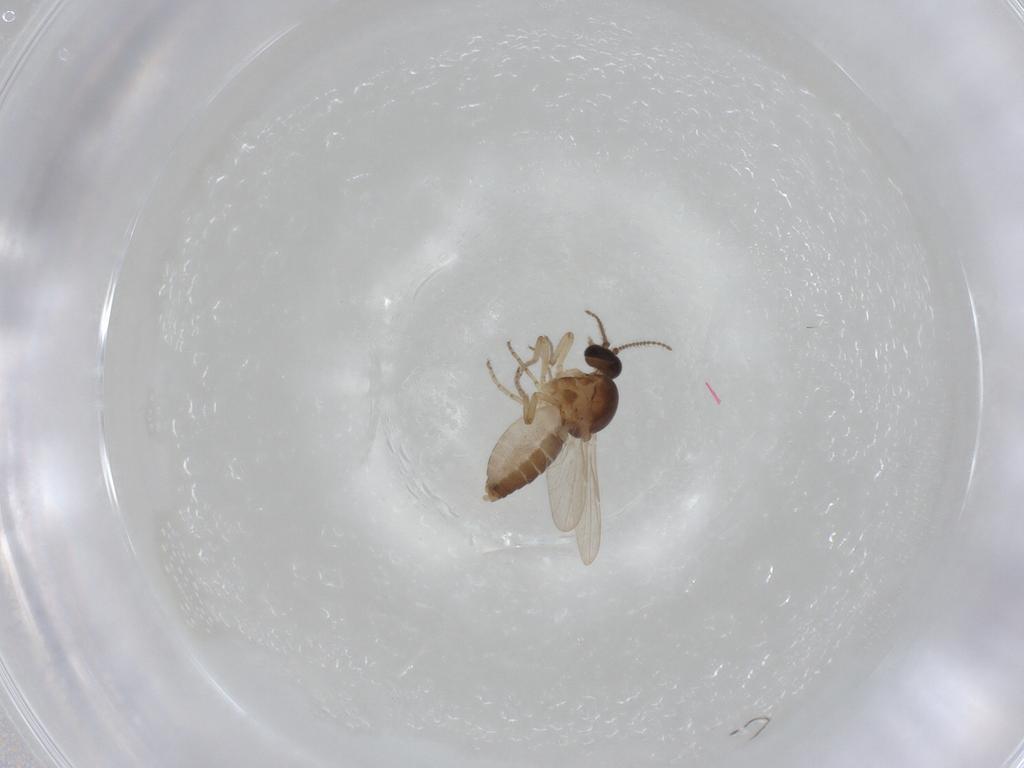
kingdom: Animalia
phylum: Arthropoda
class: Insecta
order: Diptera
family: Ceratopogonidae
